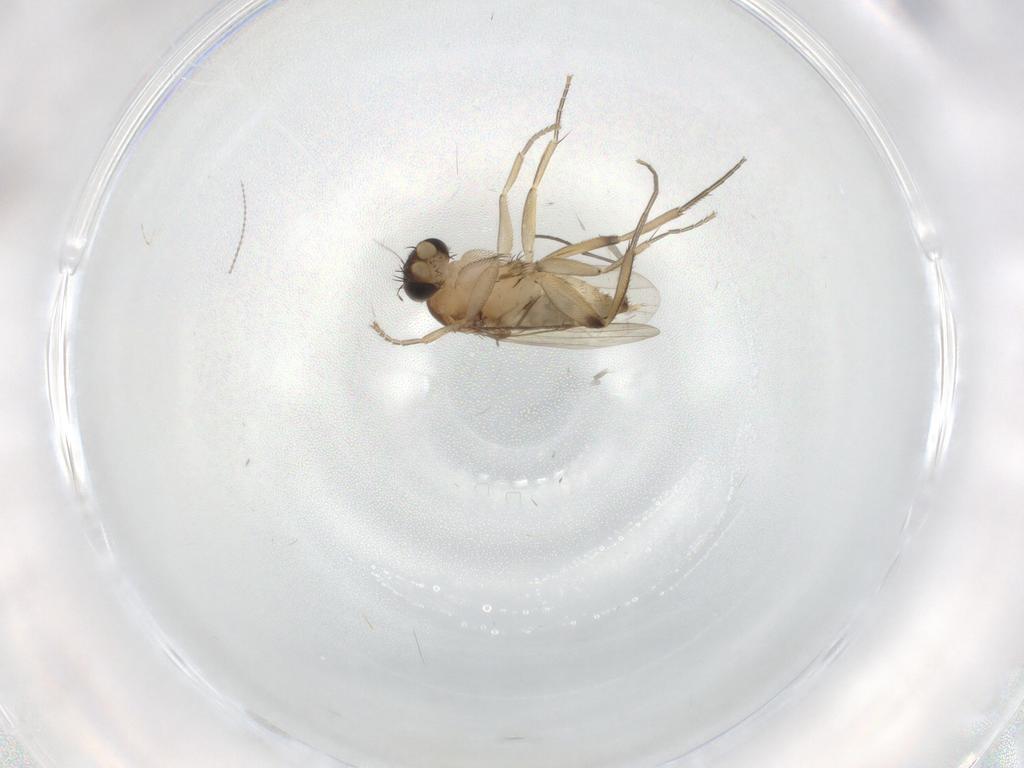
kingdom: Animalia
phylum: Arthropoda
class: Insecta
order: Diptera
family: Phoridae
